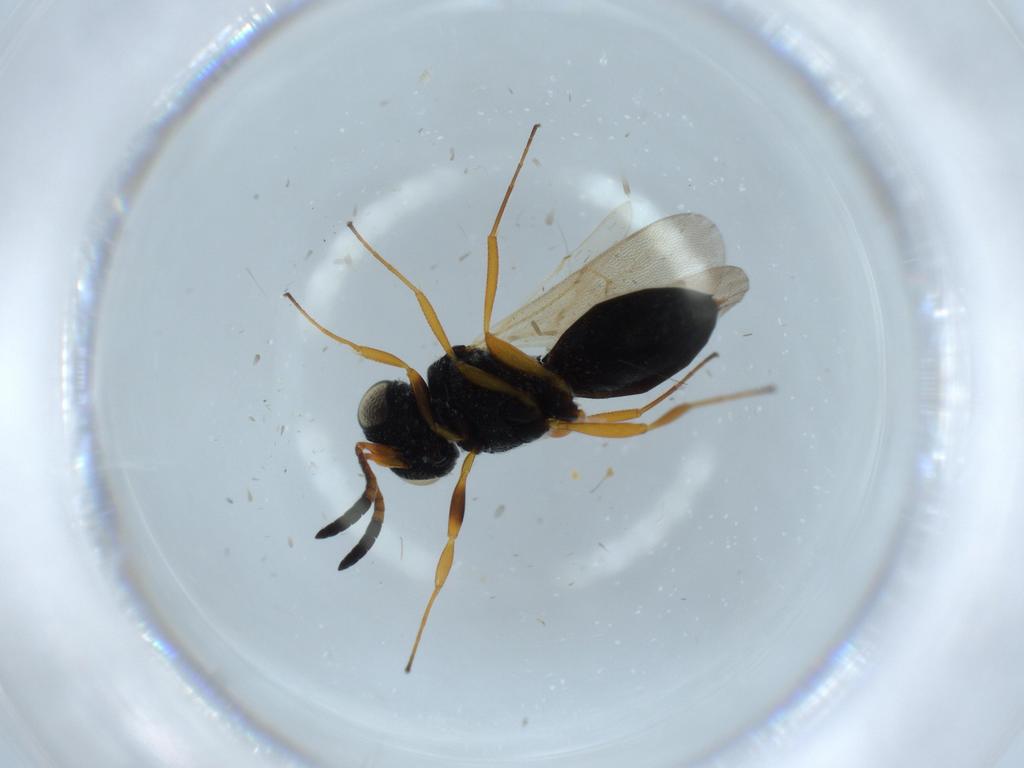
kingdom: Animalia
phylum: Arthropoda
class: Insecta
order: Hymenoptera
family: Scelionidae
